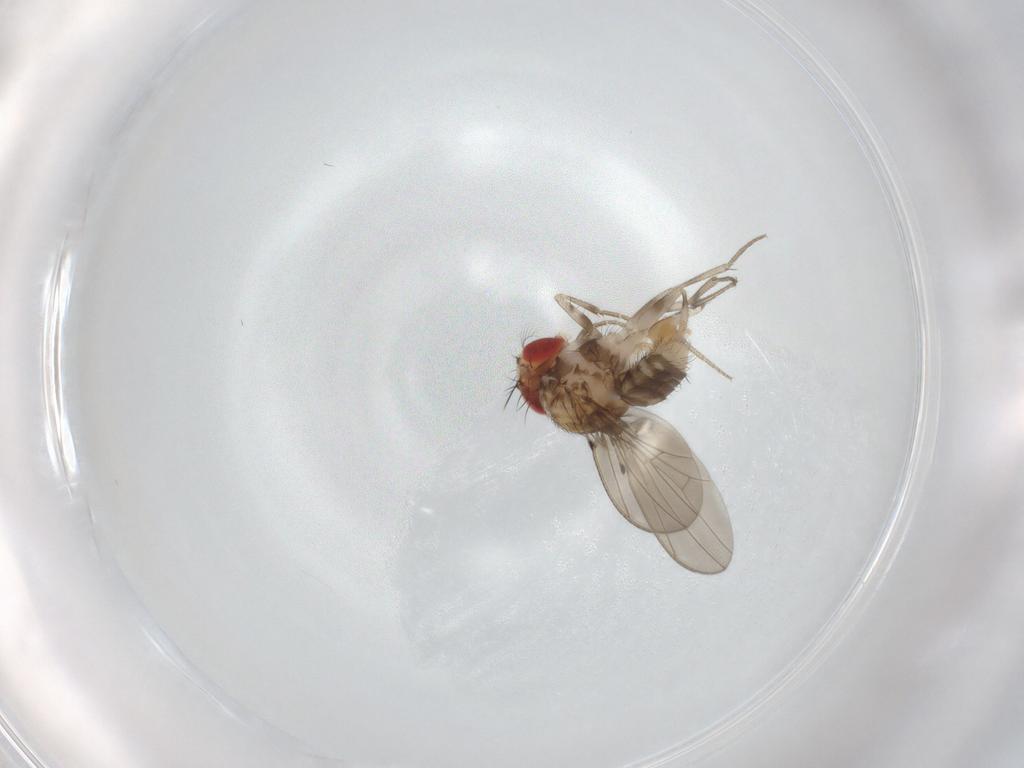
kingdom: Animalia
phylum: Arthropoda
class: Insecta
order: Diptera
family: Drosophilidae
